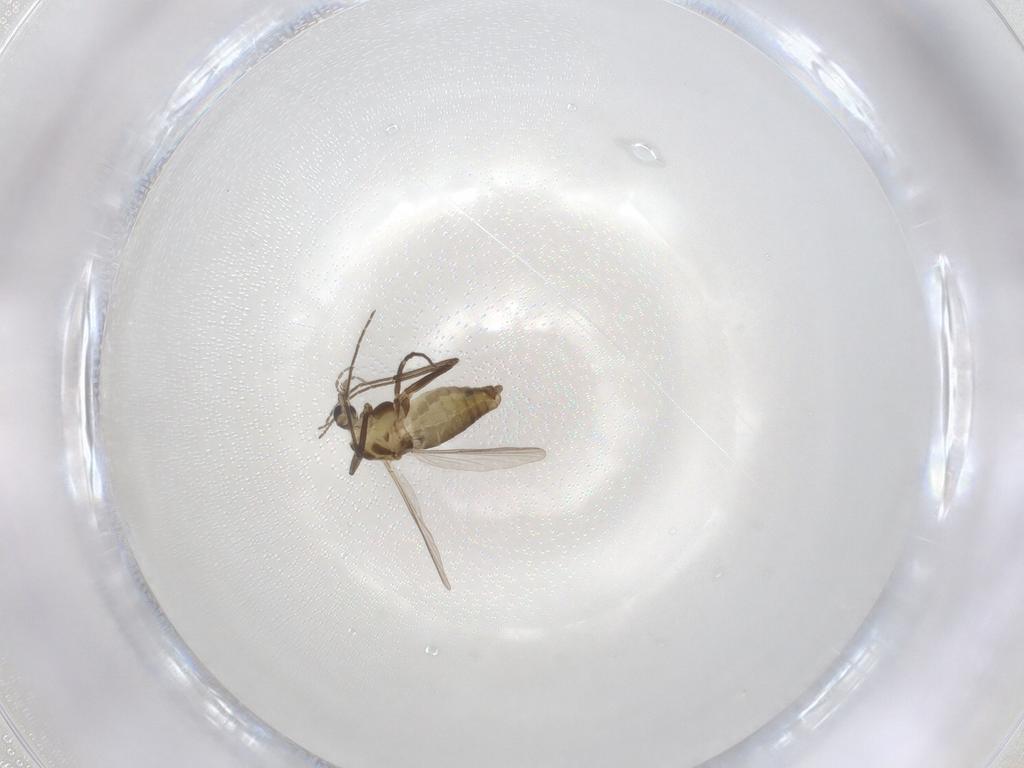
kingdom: Animalia
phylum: Arthropoda
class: Insecta
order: Diptera
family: Chironomidae
